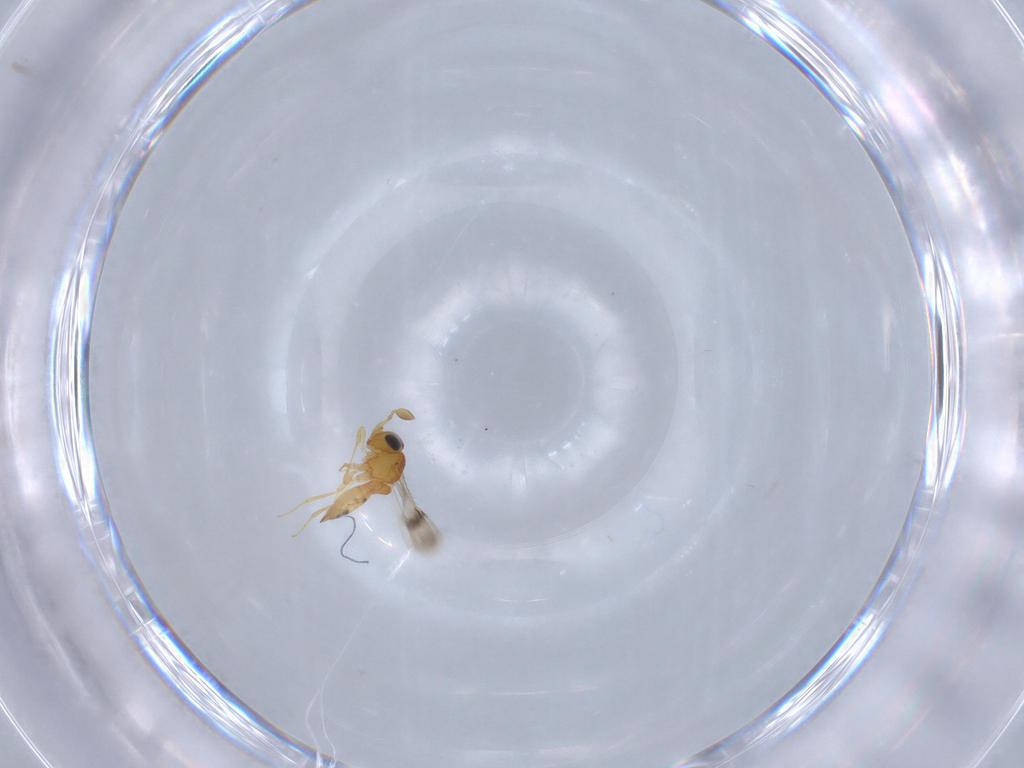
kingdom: Animalia
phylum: Arthropoda
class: Insecta
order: Hymenoptera
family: Scelionidae
